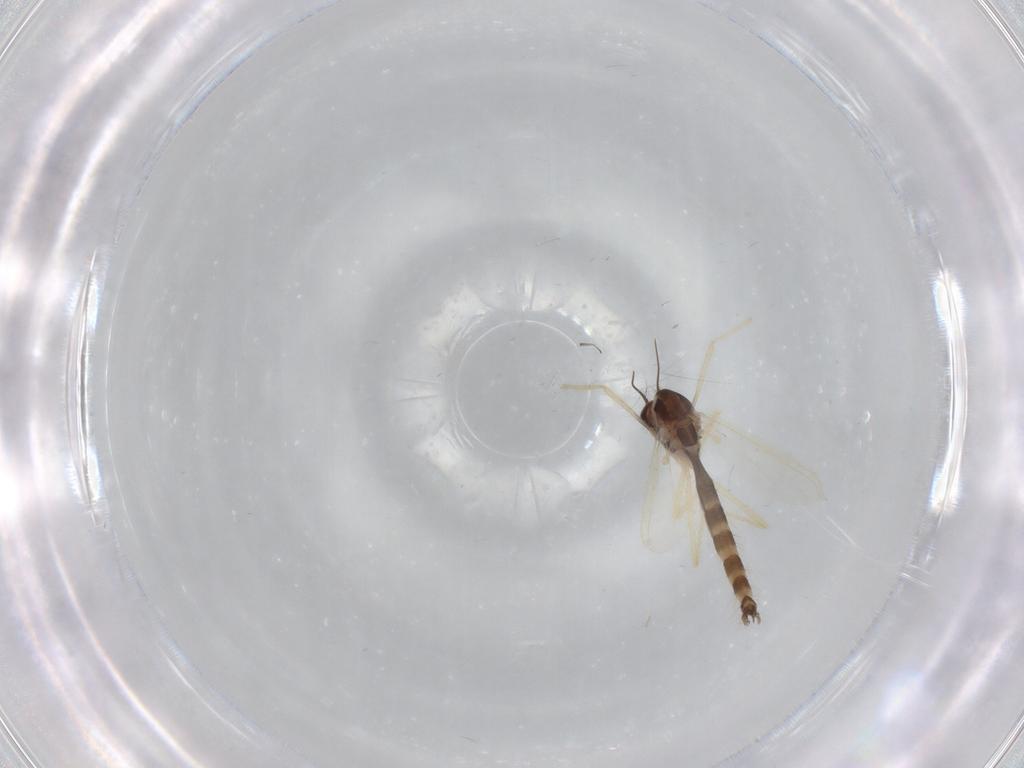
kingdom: Animalia
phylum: Arthropoda
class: Insecta
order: Diptera
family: Chironomidae
